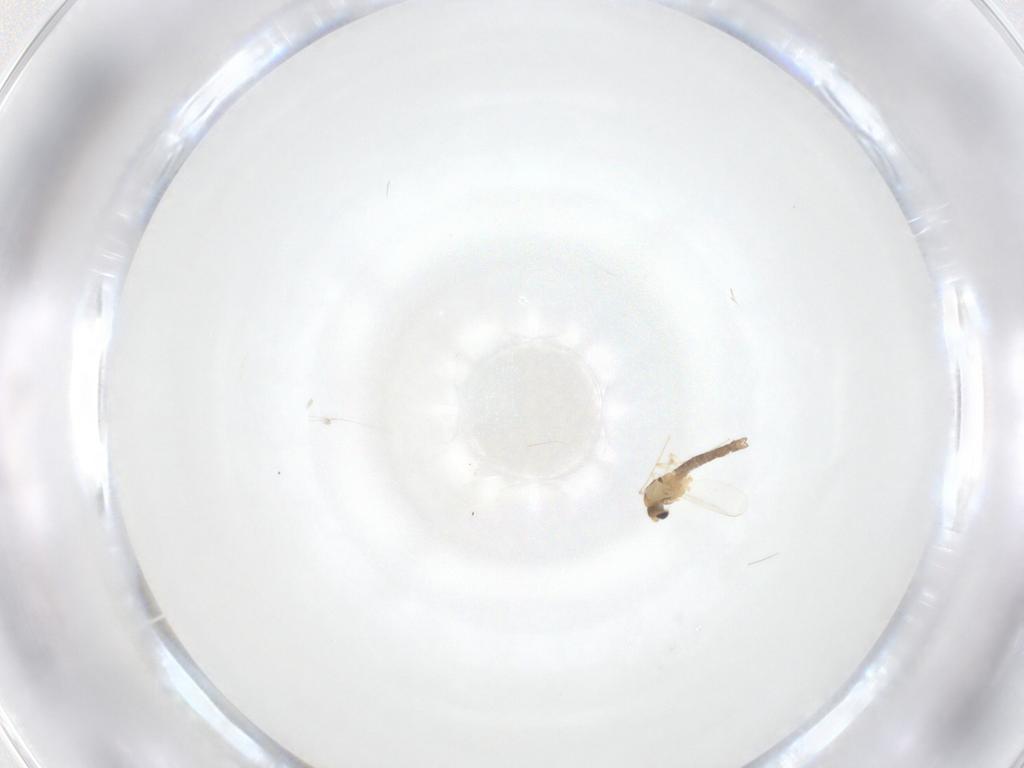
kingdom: Animalia
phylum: Arthropoda
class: Insecta
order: Diptera
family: Chironomidae
